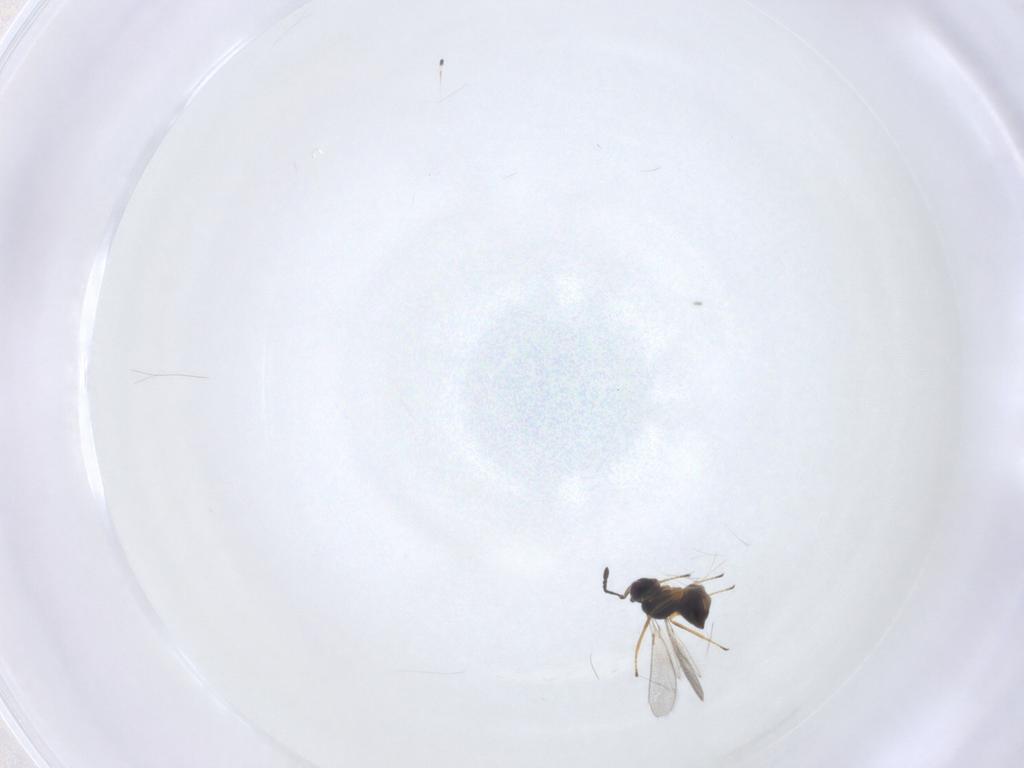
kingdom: Animalia
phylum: Arthropoda
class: Insecta
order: Hymenoptera
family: Mymaridae
